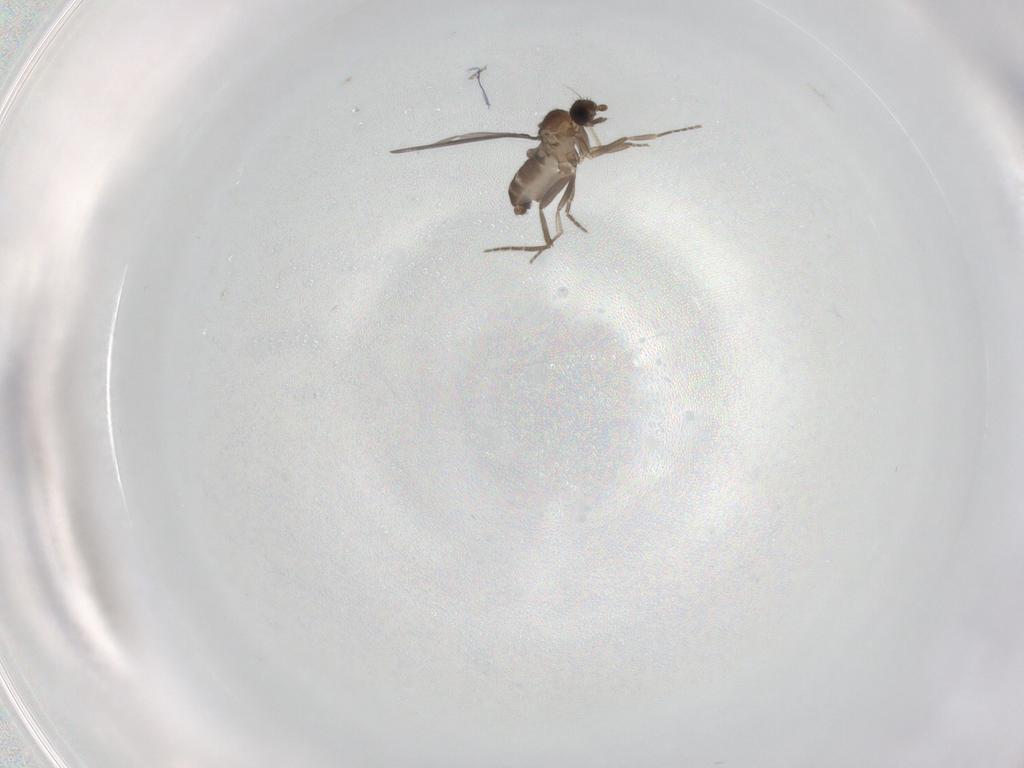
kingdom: Animalia
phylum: Arthropoda
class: Insecta
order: Diptera
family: Phoridae
